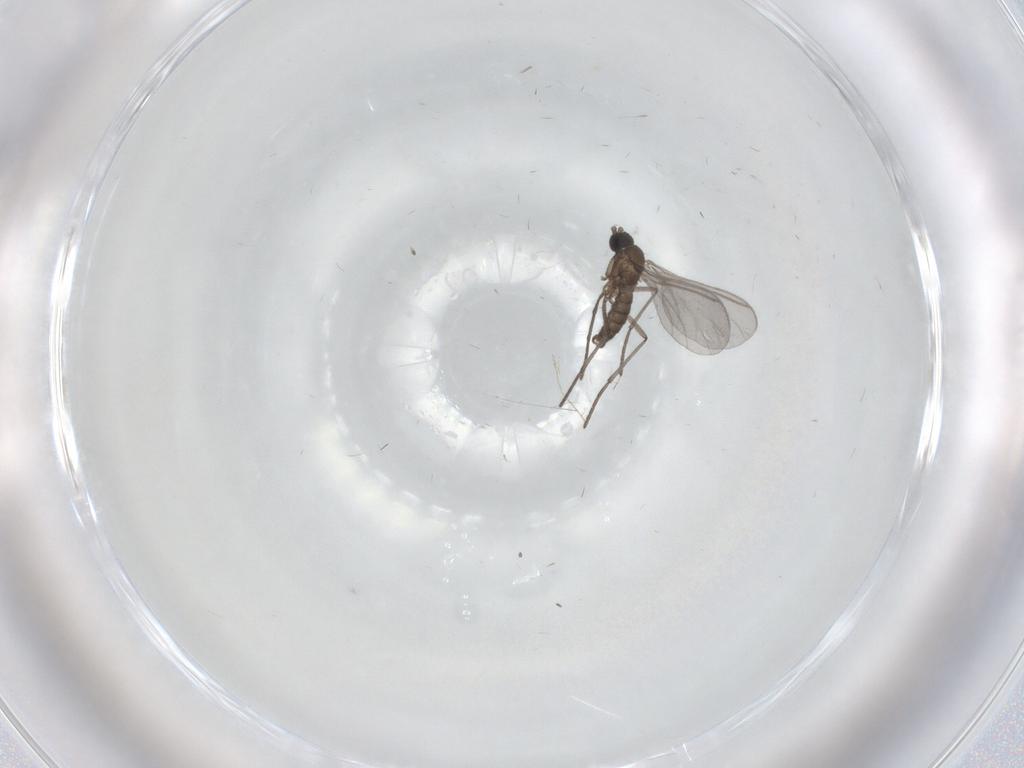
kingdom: Animalia
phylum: Arthropoda
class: Insecta
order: Diptera
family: Sciaridae
